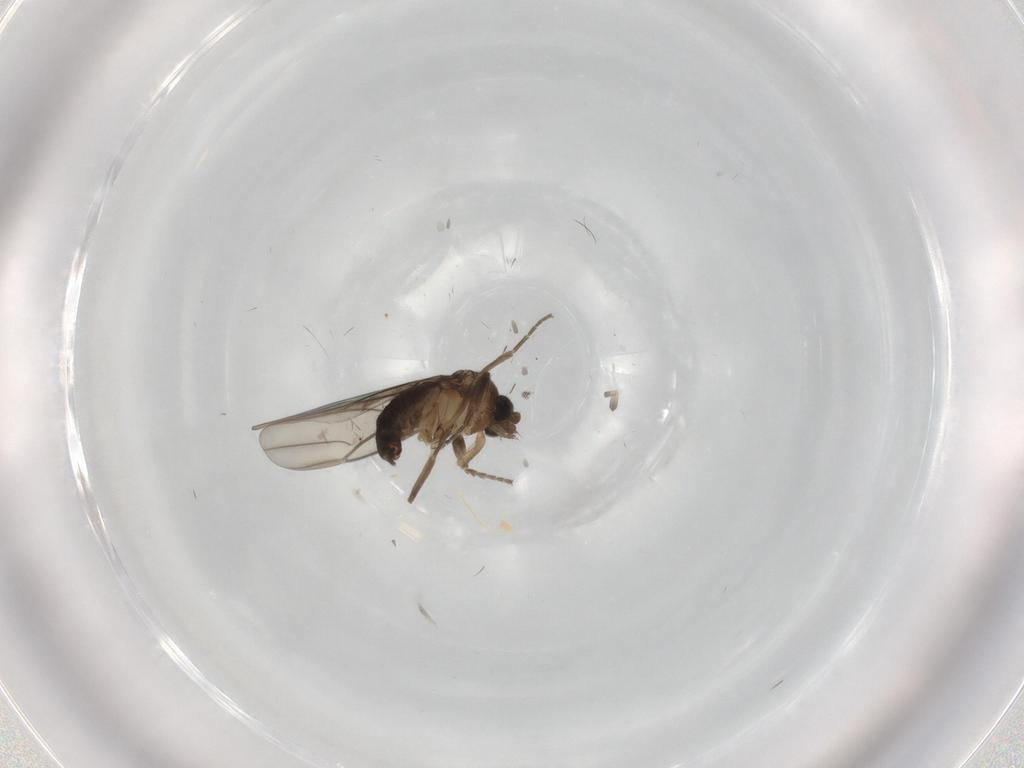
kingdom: Animalia
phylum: Arthropoda
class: Insecta
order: Diptera
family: Phoridae
